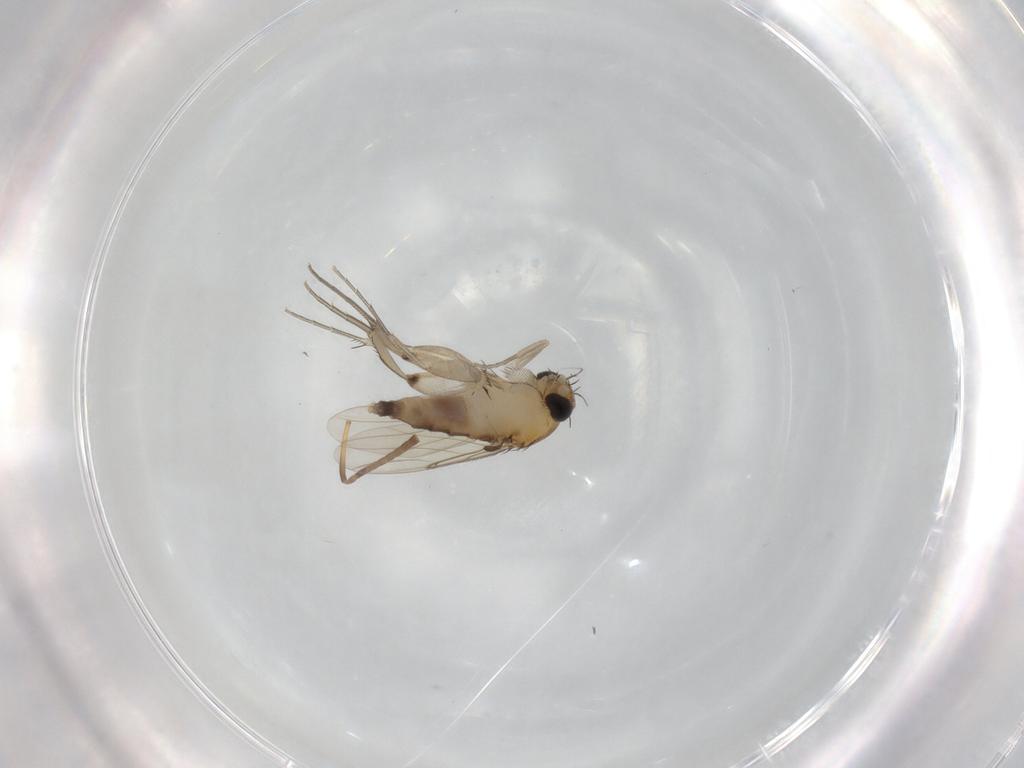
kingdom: Animalia
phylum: Arthropoda
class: Insecta
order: Diptera
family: Phoridae
